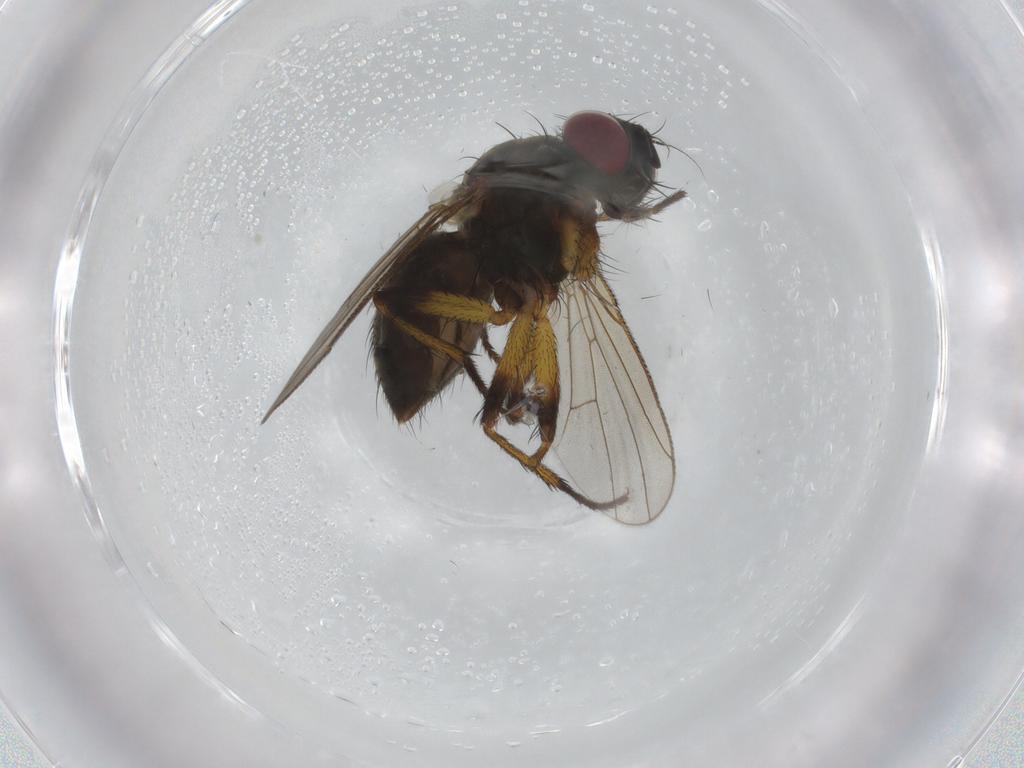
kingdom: Animalia
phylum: Arthropoda
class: Insecta
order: Diptera
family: Muscidae
